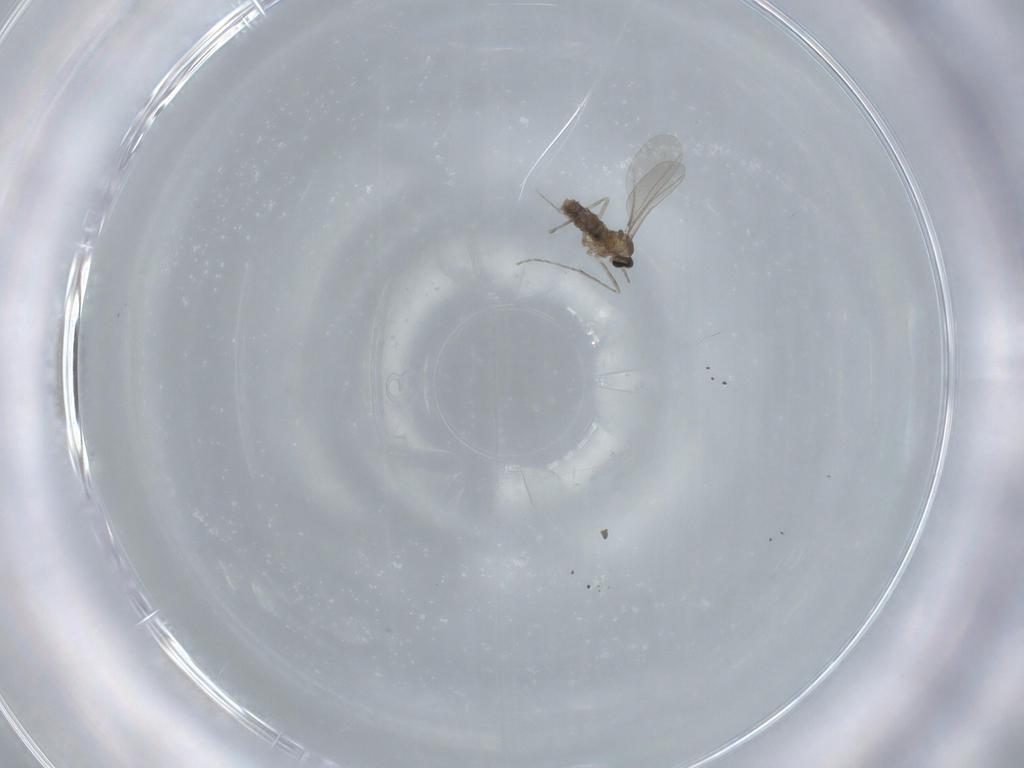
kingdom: Animalia
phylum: Arthropoda
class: Insecta
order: Diptera
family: Cecidomyiidae
